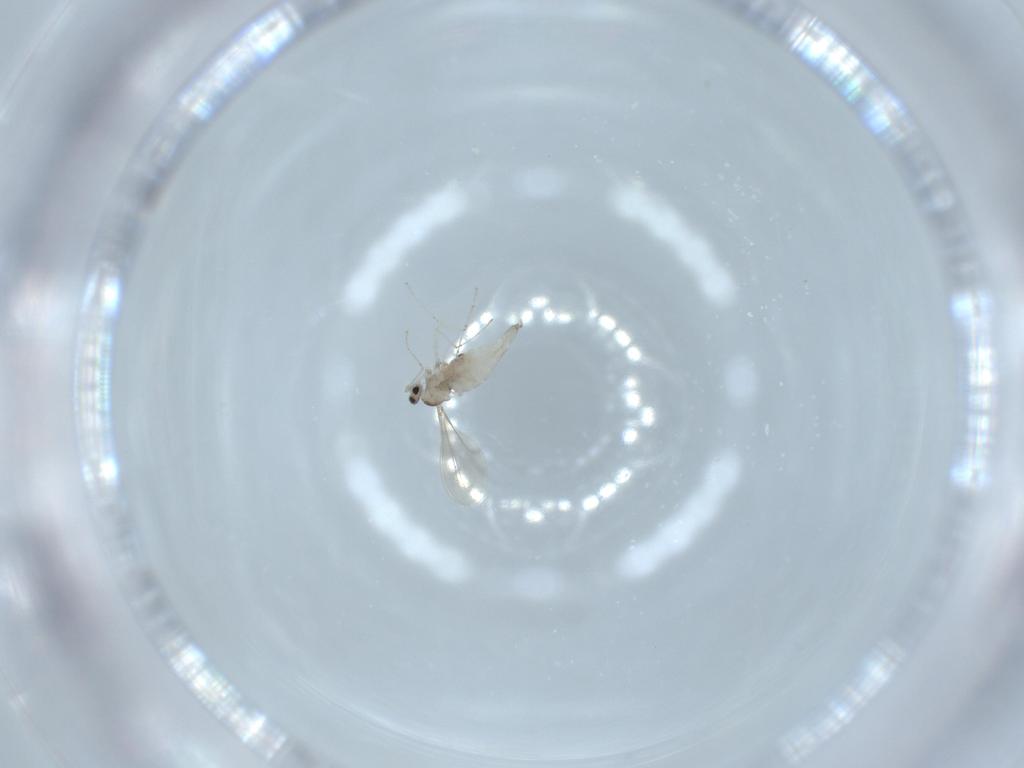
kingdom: Animalia
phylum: Arthropoda
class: Insecta
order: Diptera
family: Cecidomyiidae
